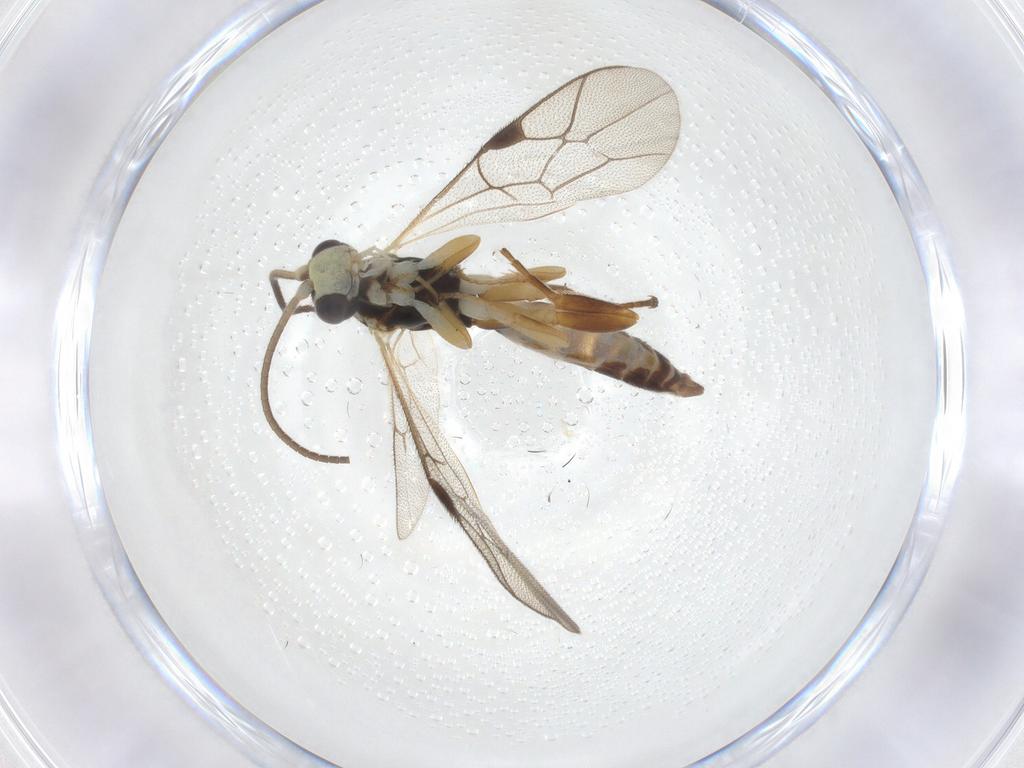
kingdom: Animalia
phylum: Arthropoda
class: Insecta
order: Hymenoptera
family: Ichneumonidae
